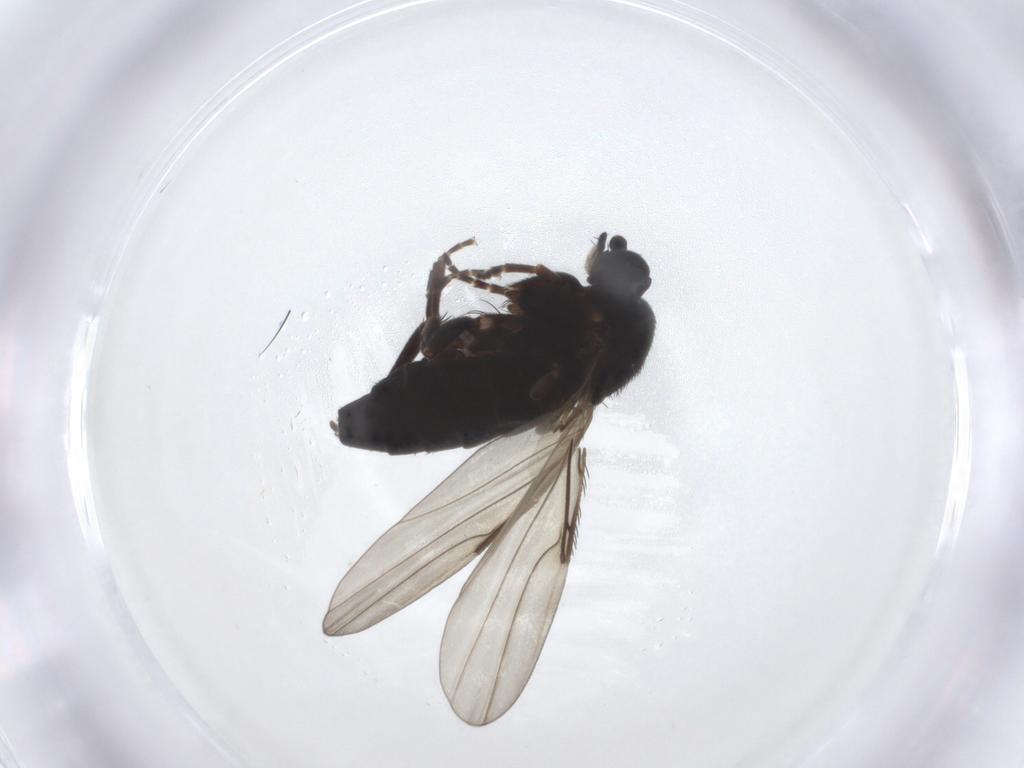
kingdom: Animalia
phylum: Arthropoda
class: Insecta
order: Diptera
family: Phoridae
